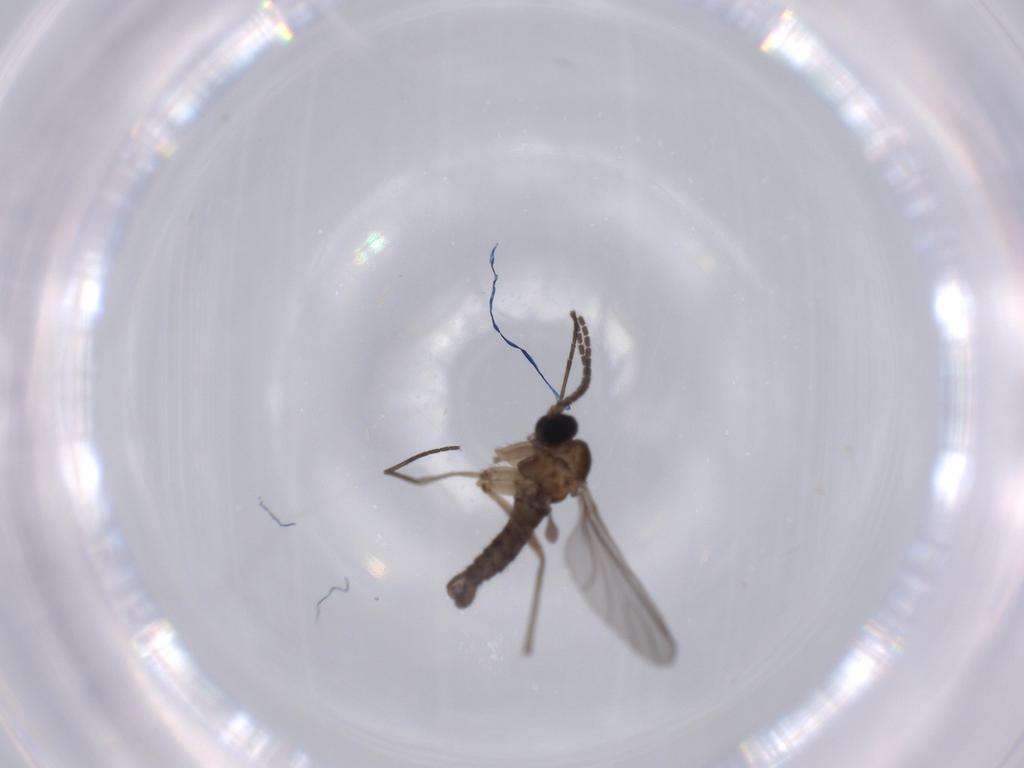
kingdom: Animalia
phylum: Arthropoda
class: Insecta
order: Diptera
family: Sciaridae
